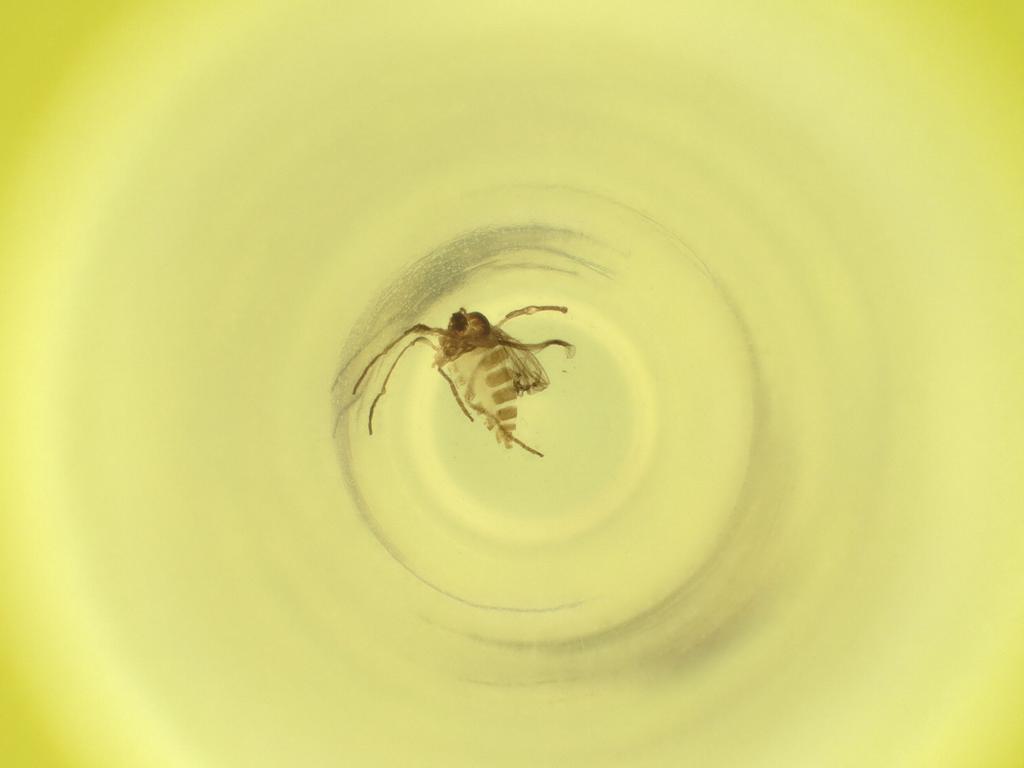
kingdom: Animalia
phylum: Arthropoda
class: Insecta
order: Diptera
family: Cecidomyiidae
